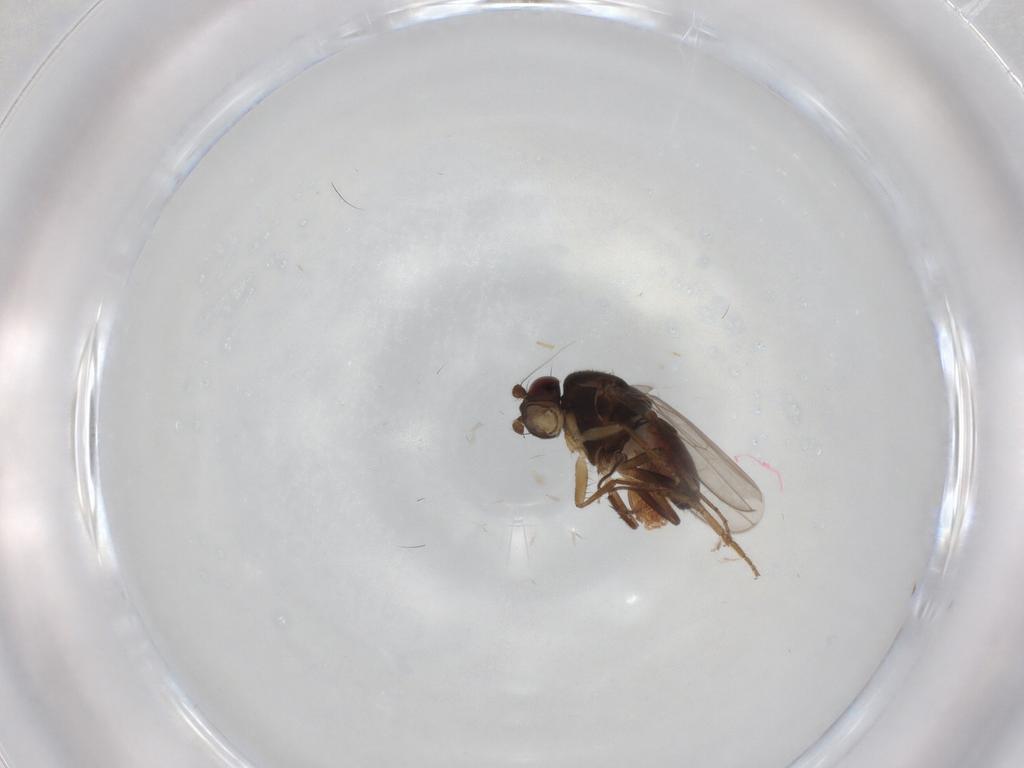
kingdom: Animalia
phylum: Arthropoda
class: Insecta
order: Diptera
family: Limoniidae
